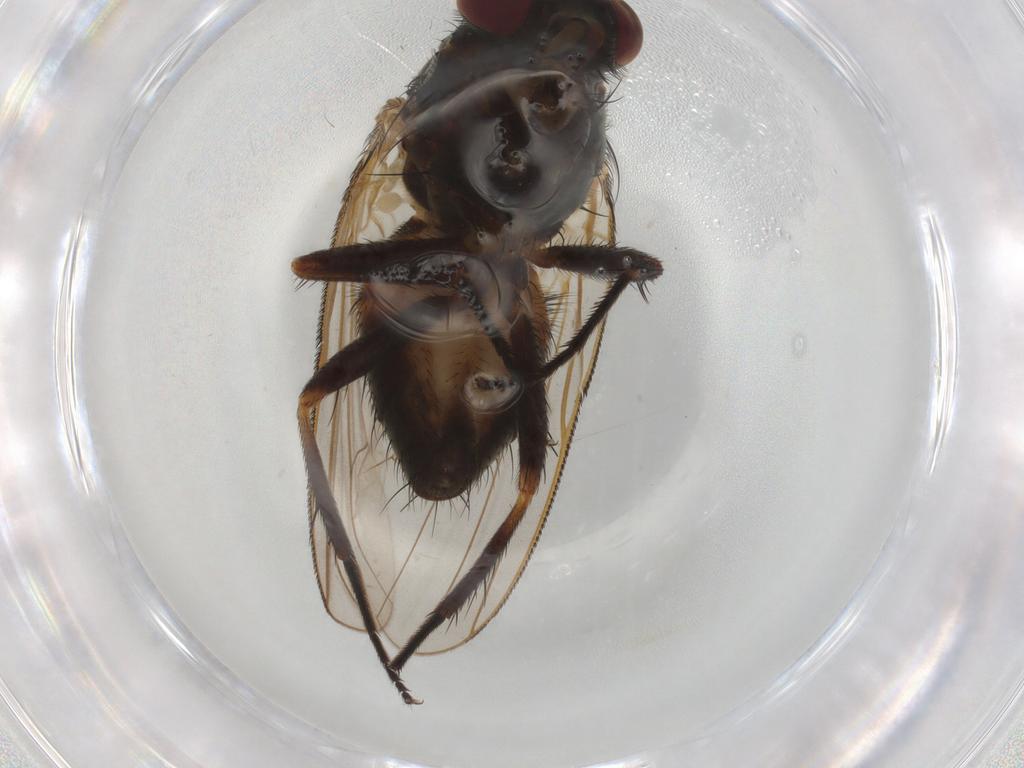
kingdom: Animalia
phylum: Arthropoda
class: Insecta
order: Diptera
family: Fannia
